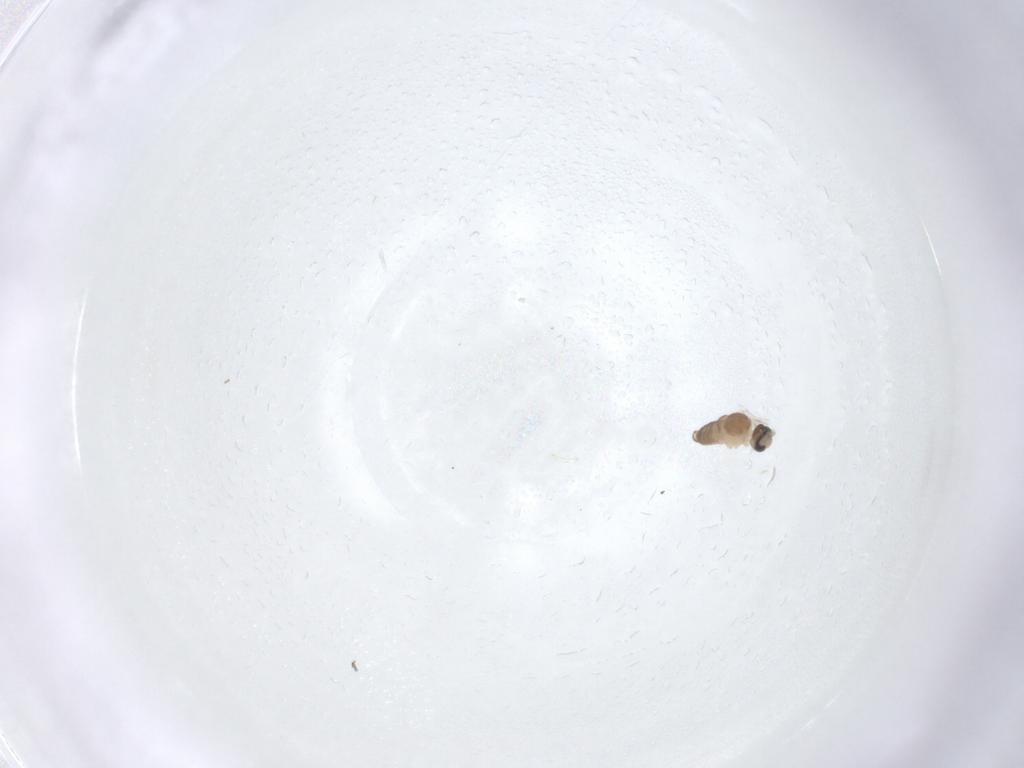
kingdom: Animalia
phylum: Arthropoda
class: Insecta
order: Diptera
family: Cecidomyiidae
